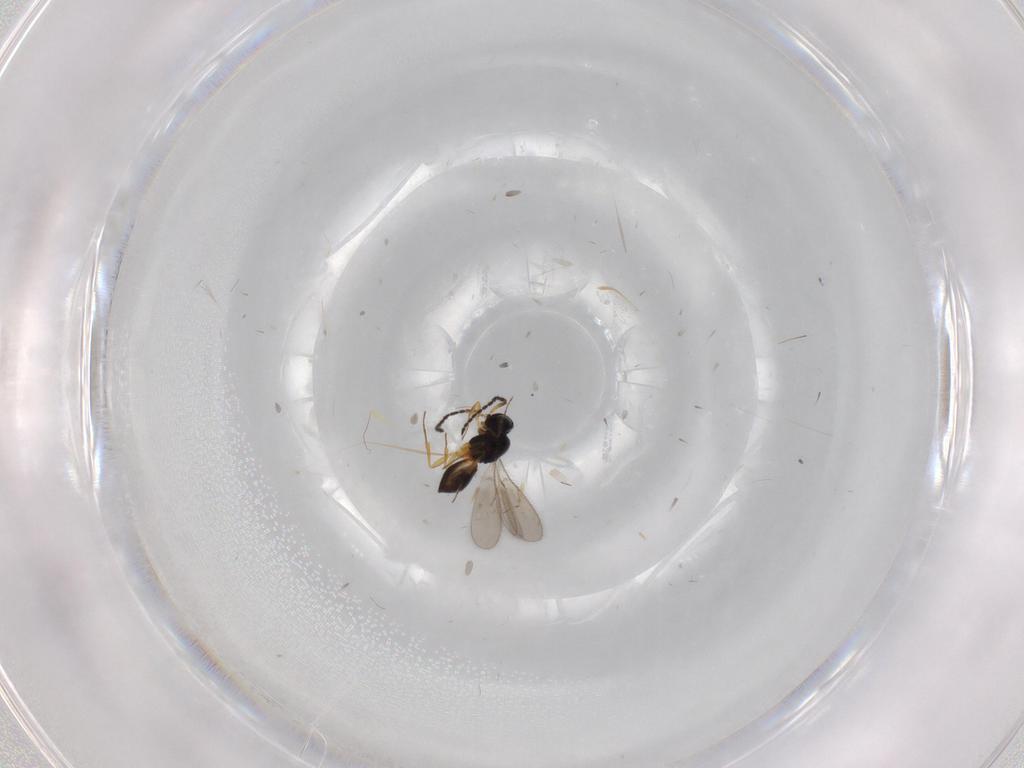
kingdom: Animalia
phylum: Arthropoda
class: Insecta
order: Hymenoptera
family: Scelionidae
